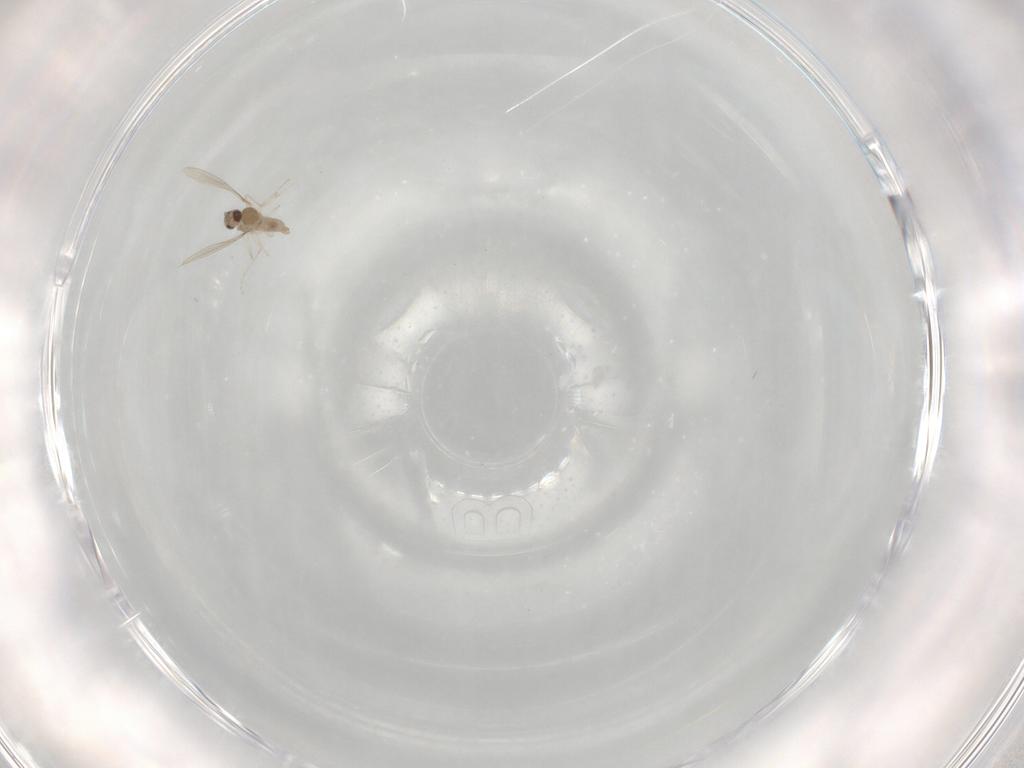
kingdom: Animalia
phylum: Arthropoda
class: Insecta
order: Diptera
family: Cecidomyiidae
